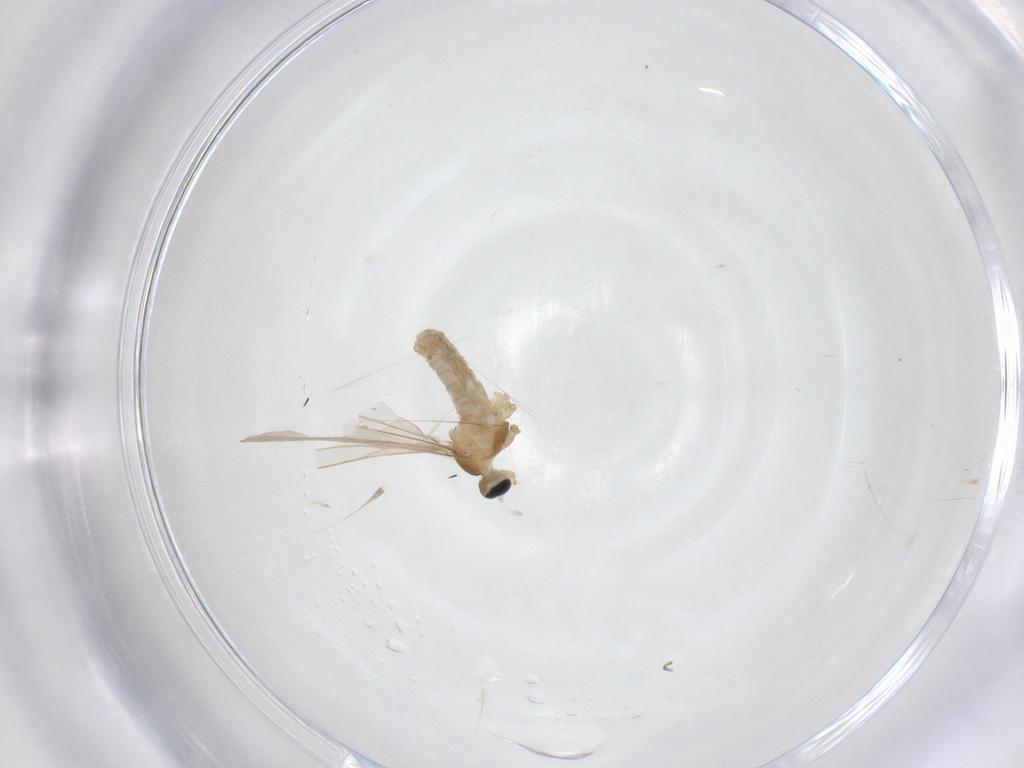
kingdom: Animalia
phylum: Arthropoda
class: Insecta
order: Diptera
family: Cecidomyiidae
